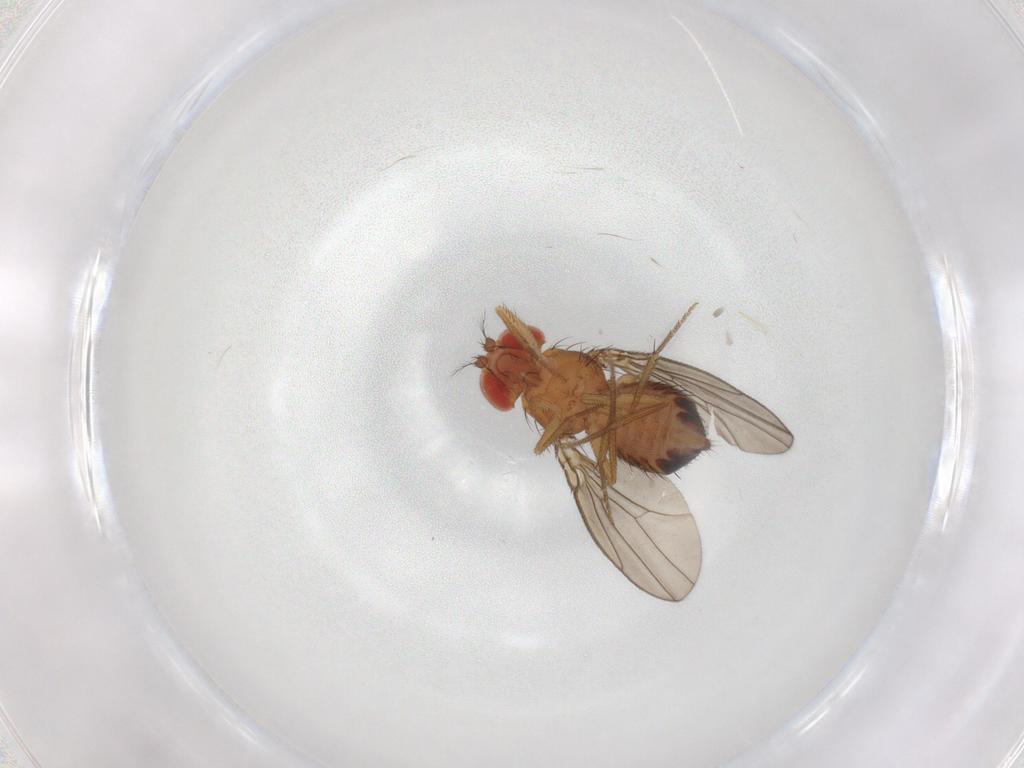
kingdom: Animalia
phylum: Arthropoda
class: Insecta
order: Diptera
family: Drosophilidae
